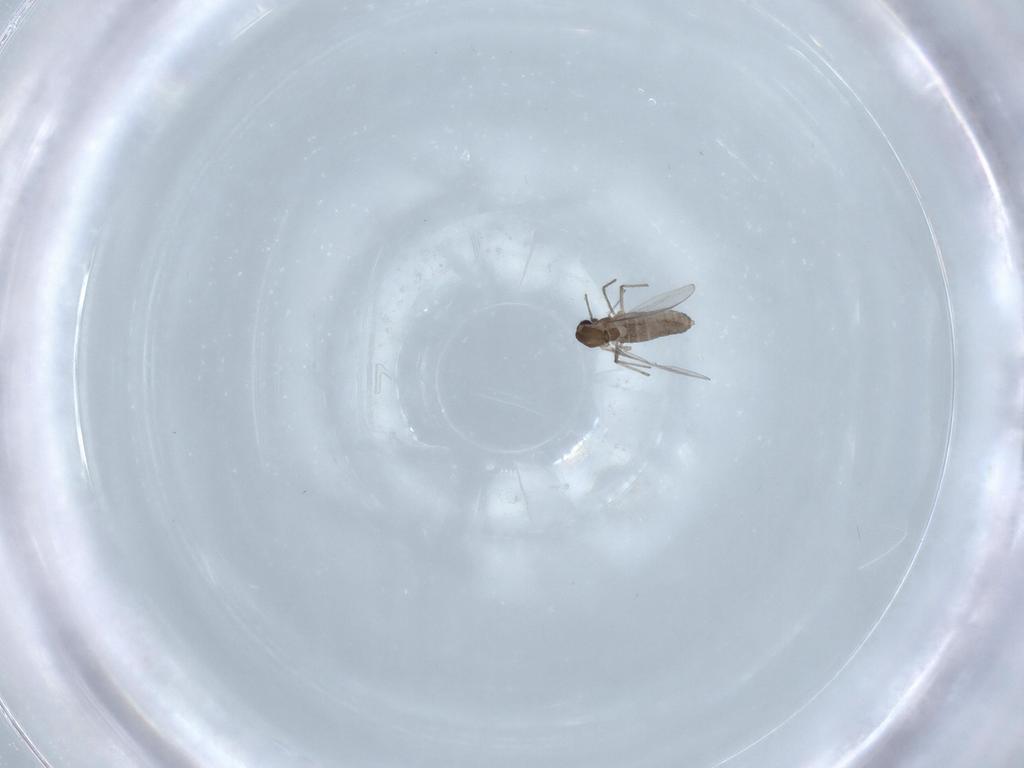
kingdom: Animalia
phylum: Arthropoda
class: Insecta
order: Diptera
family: Chironomidae
